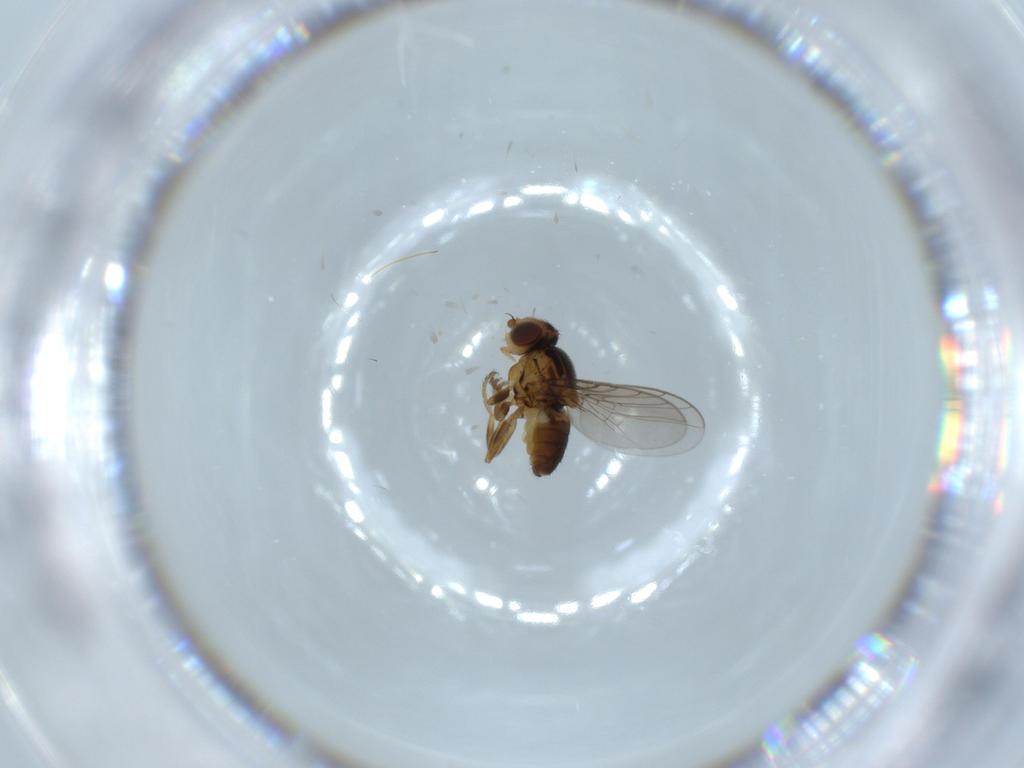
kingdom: Animalia
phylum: Arthropoda
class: Insecta
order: Diptera
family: Chloropidae
